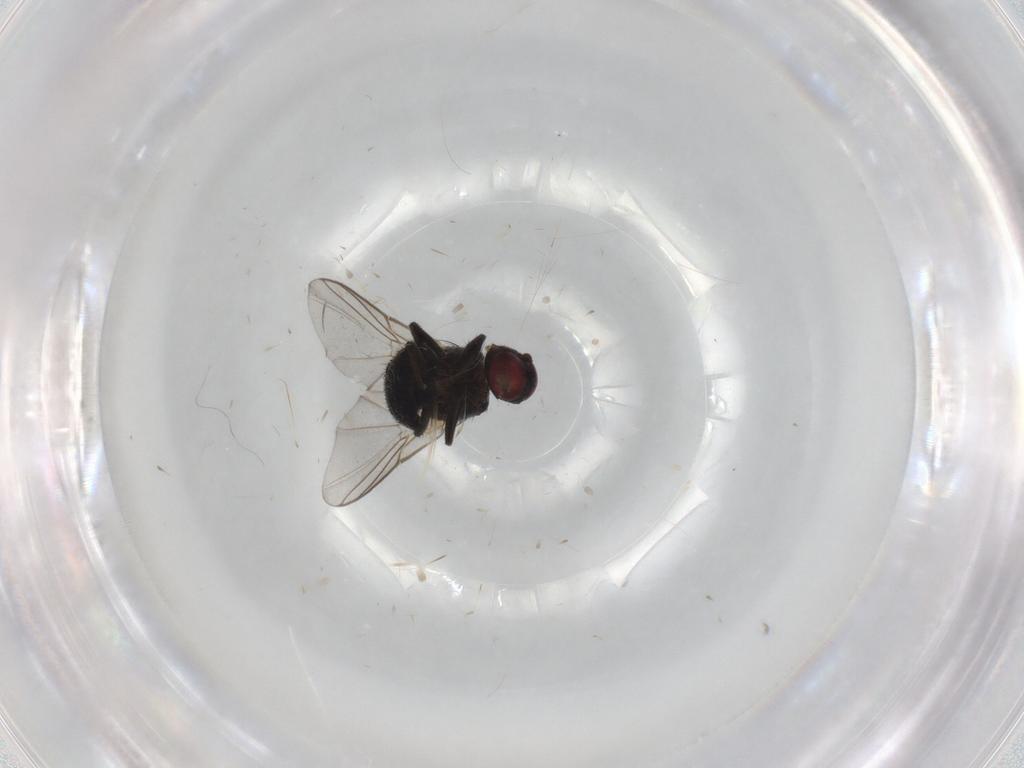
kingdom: Animalia
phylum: Arthropoda
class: Insecta
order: Diptera
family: Agromyzidae
